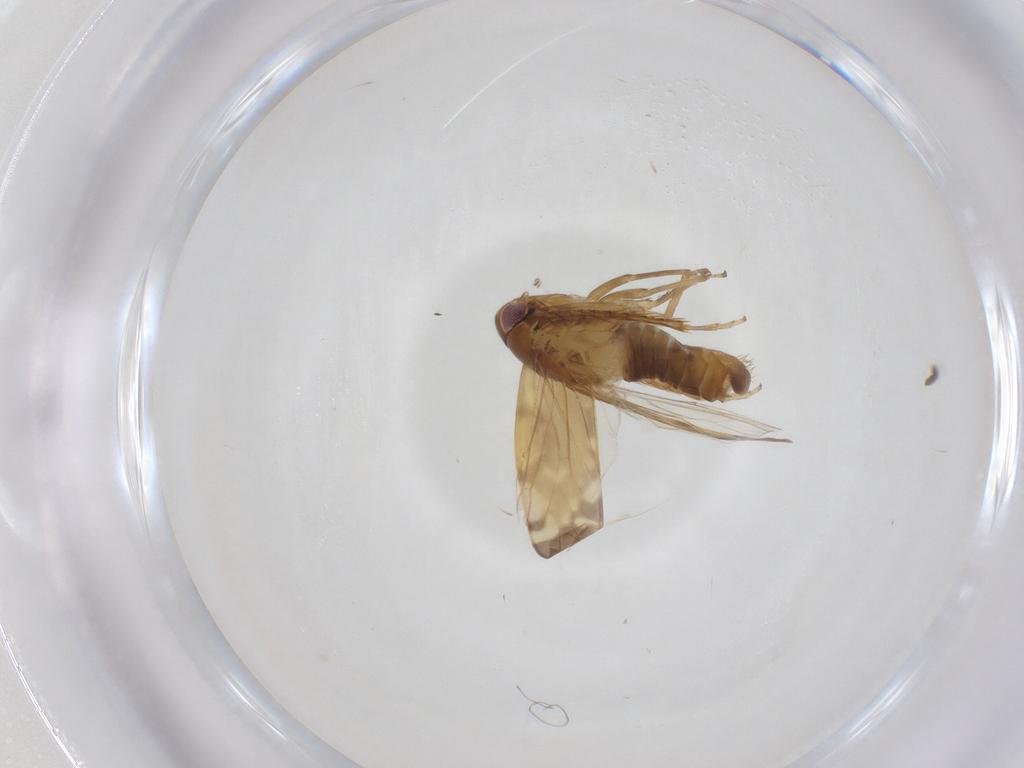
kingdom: Animalia
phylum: Arthropoda
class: Insecta
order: Hemiptera
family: Cicadellidae
